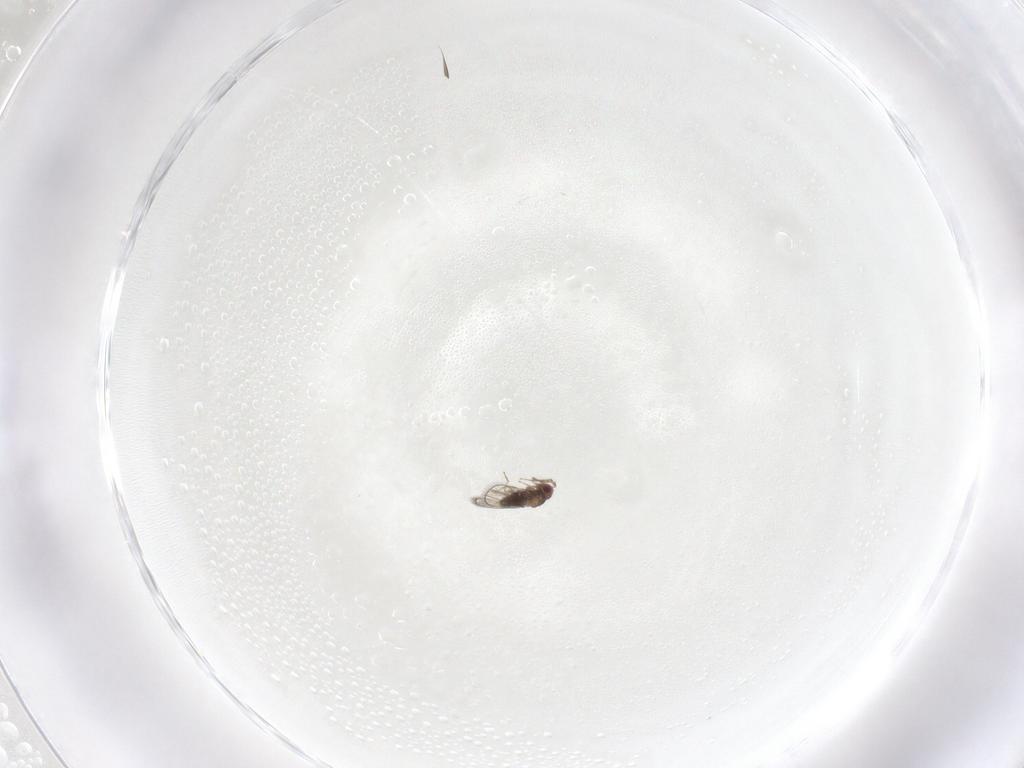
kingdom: Animalia
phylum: Arthropoda
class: Insecta
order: Hymenoptera
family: Trichogrammatidae
